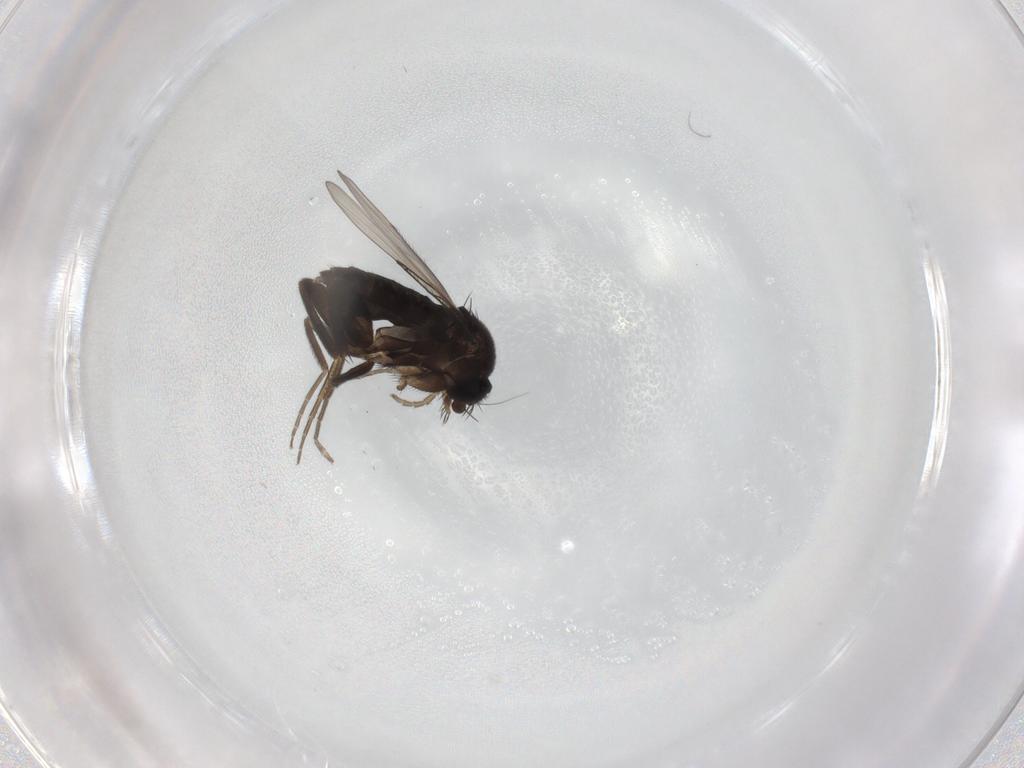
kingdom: Animalia
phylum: Arthropoda
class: Insecta
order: Diptera
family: Phoridae
